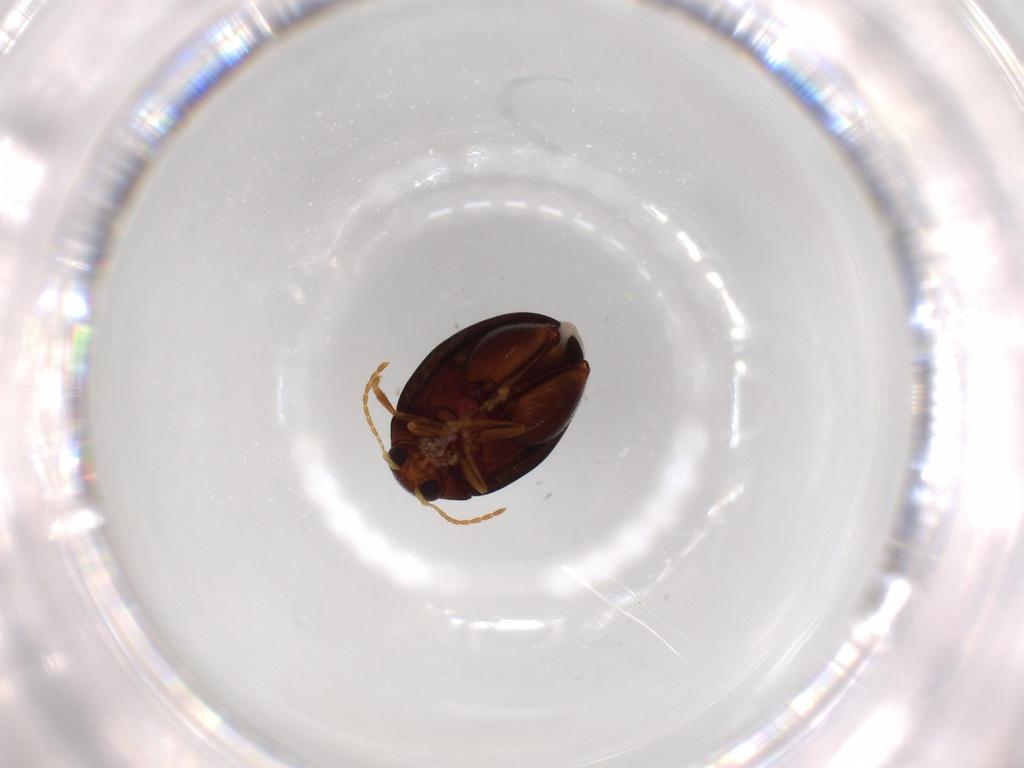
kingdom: Animalia
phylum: Arthropoda
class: Insecta
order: Coleoptera
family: Chrysomelidae
